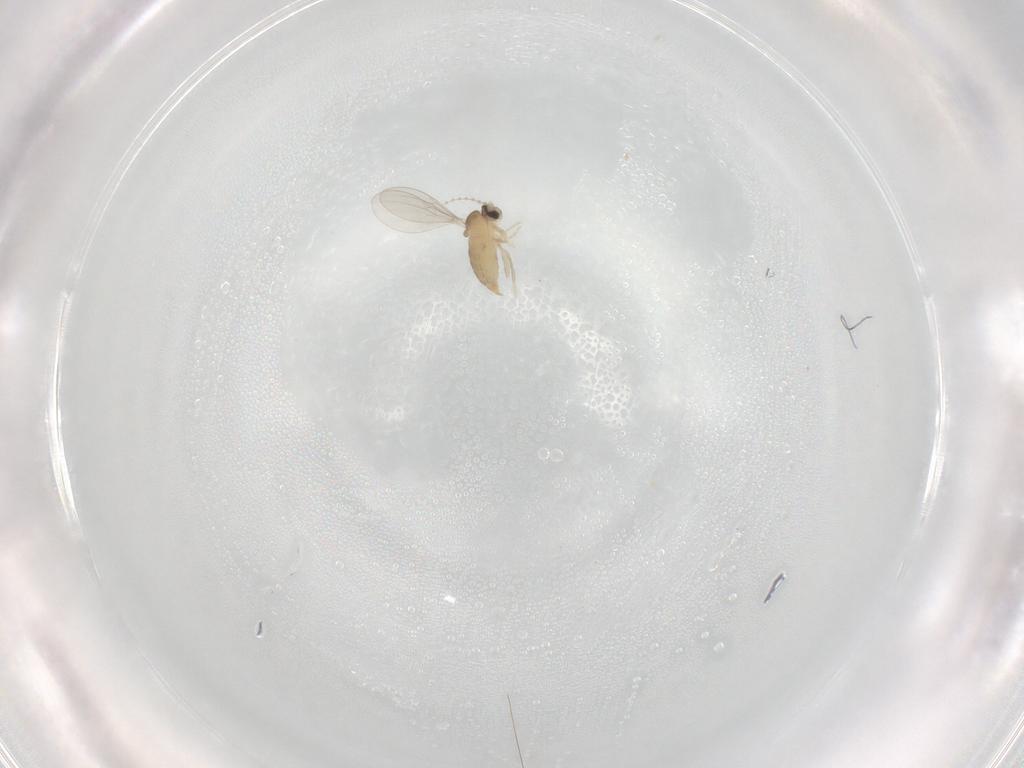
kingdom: Animalia
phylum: Arthropoda
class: Insecta
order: Diptera
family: Cecidomyiidae
